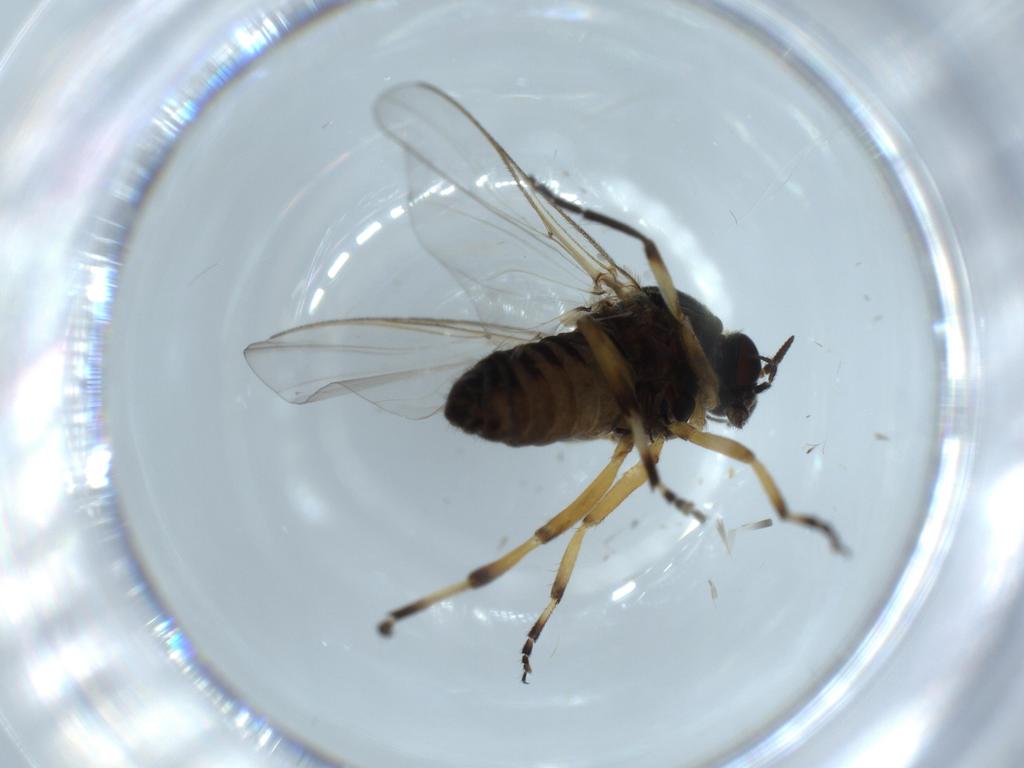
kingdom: Animalia
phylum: Arthropoda
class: Insecta
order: Diptera
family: Simuliidae
